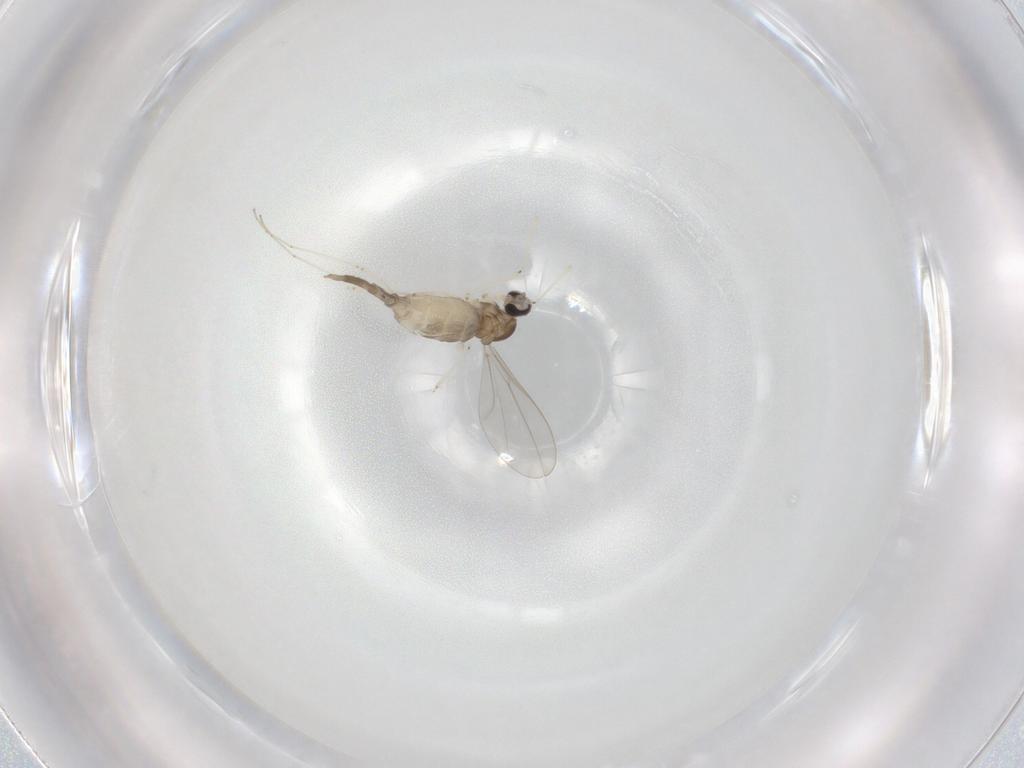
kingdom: Animalia
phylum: Arthropoda
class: Insecta
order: Diptera
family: Cecidomyiidae
